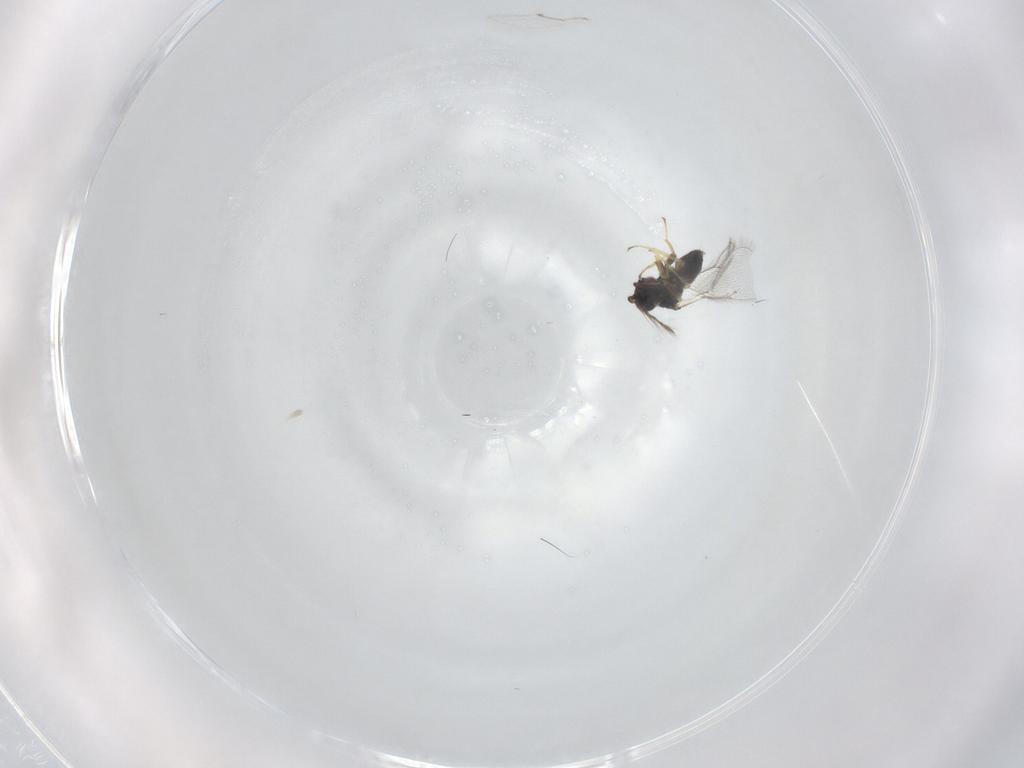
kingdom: Animalia
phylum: Arthropoda
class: Insecta
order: Hymenoptera
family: Eulophidae
